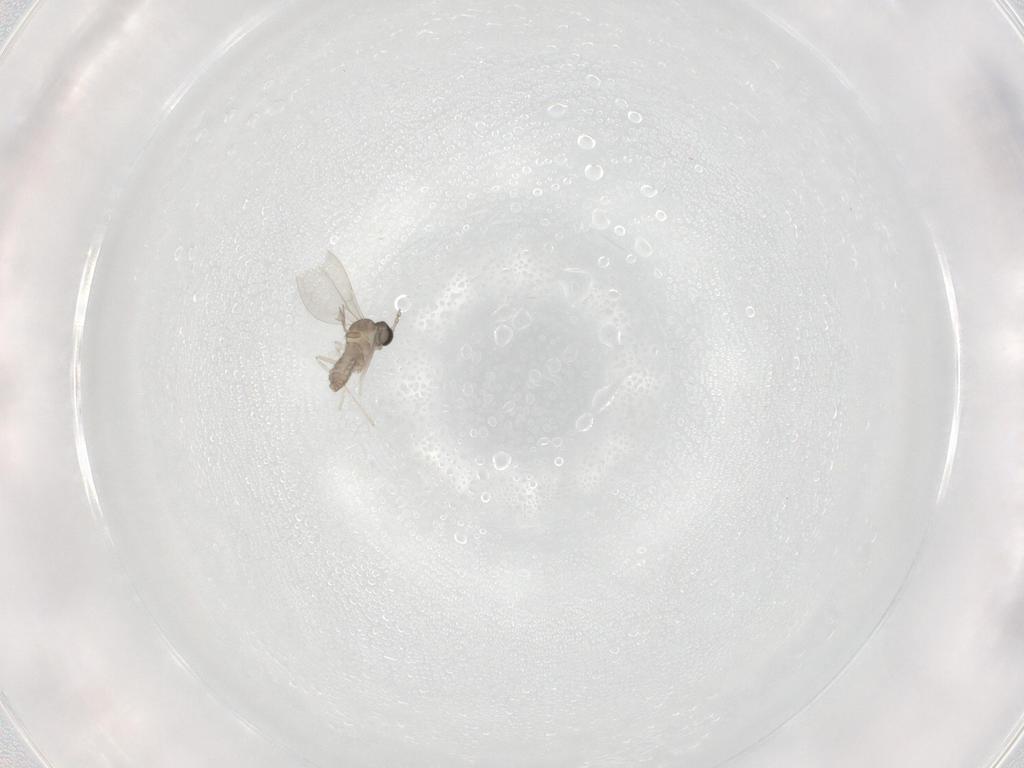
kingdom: Animalia
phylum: Arthropoda
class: Insecta
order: Diptera
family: Cecidomyiidae
